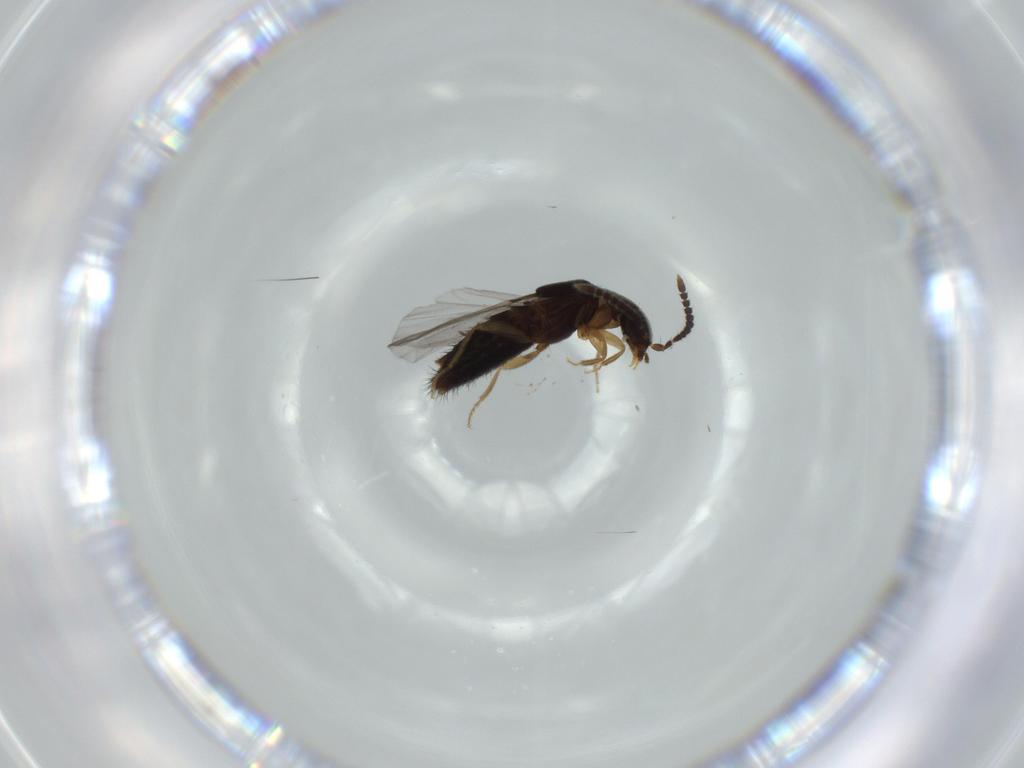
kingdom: Animalia
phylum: Arthropoda
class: Insecta
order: Coleoptera
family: Staphylinidae
